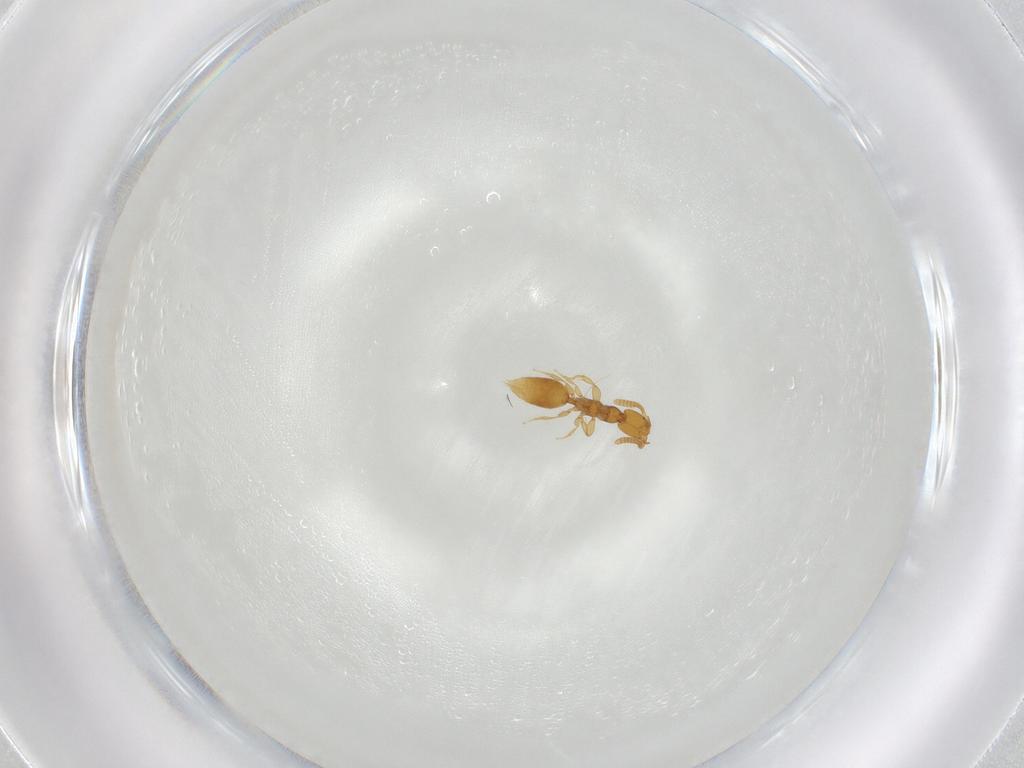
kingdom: Animalia
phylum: Arthropoda
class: Insecta
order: Hymenoptera
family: Bethylidae
